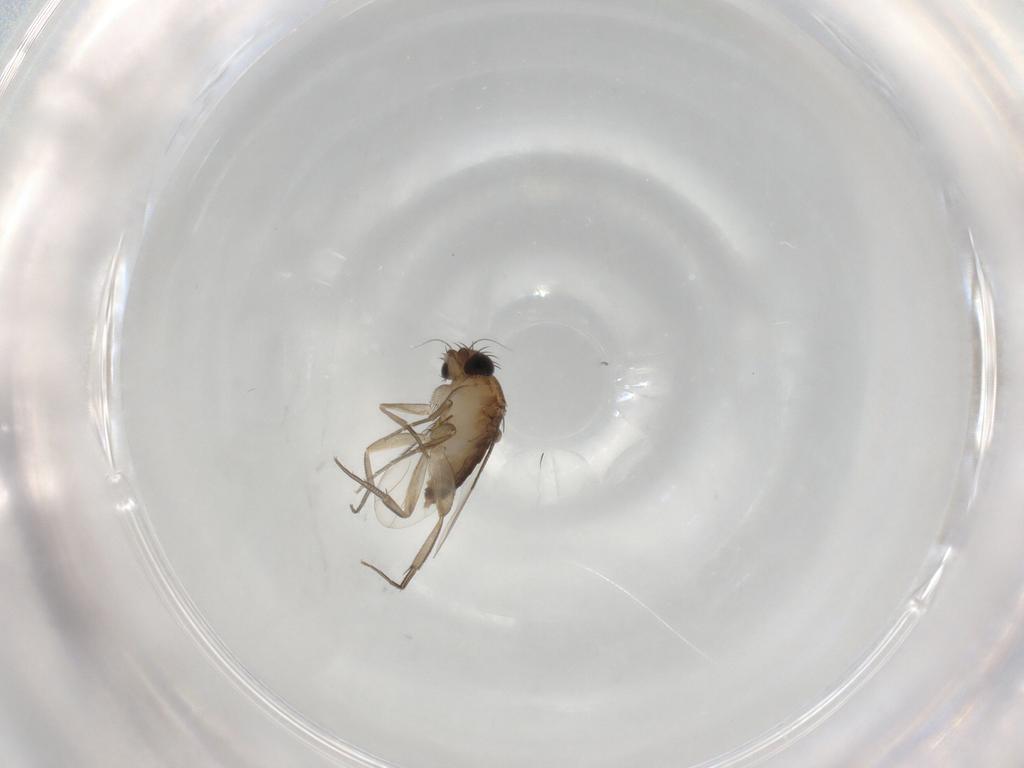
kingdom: Animalia
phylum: Arthropoda
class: Insecta
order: Diptera
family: Phoridae
